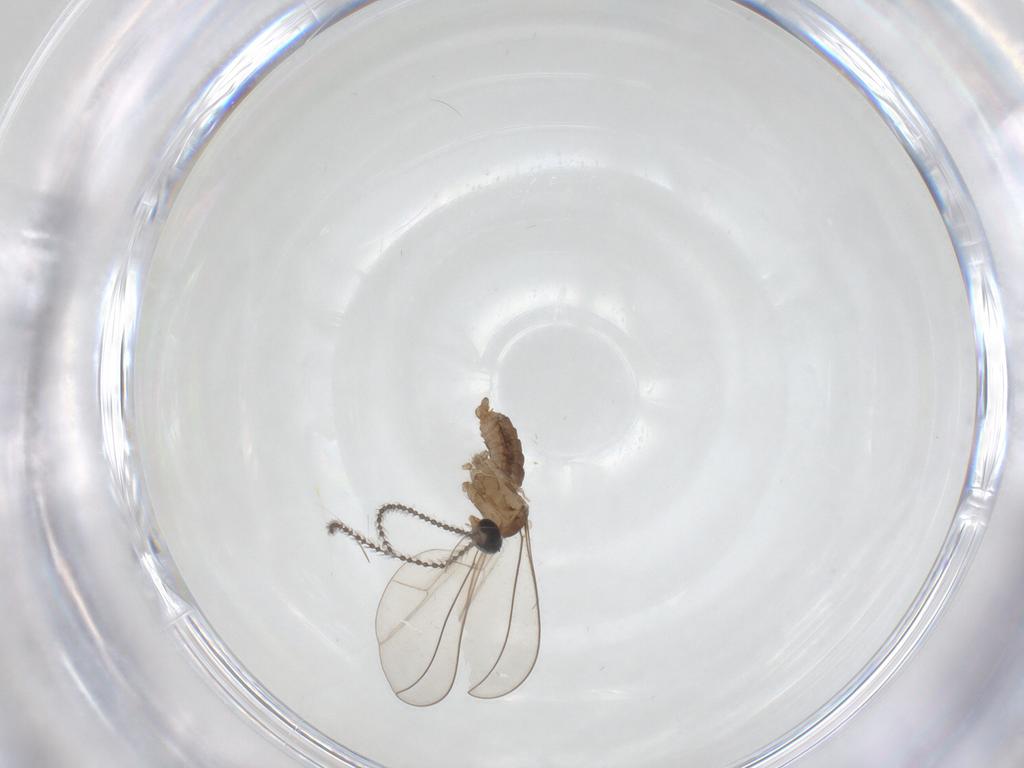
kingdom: Animalia
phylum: Arthropoda
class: Insecta
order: Diptera
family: Cecidomyiidae
